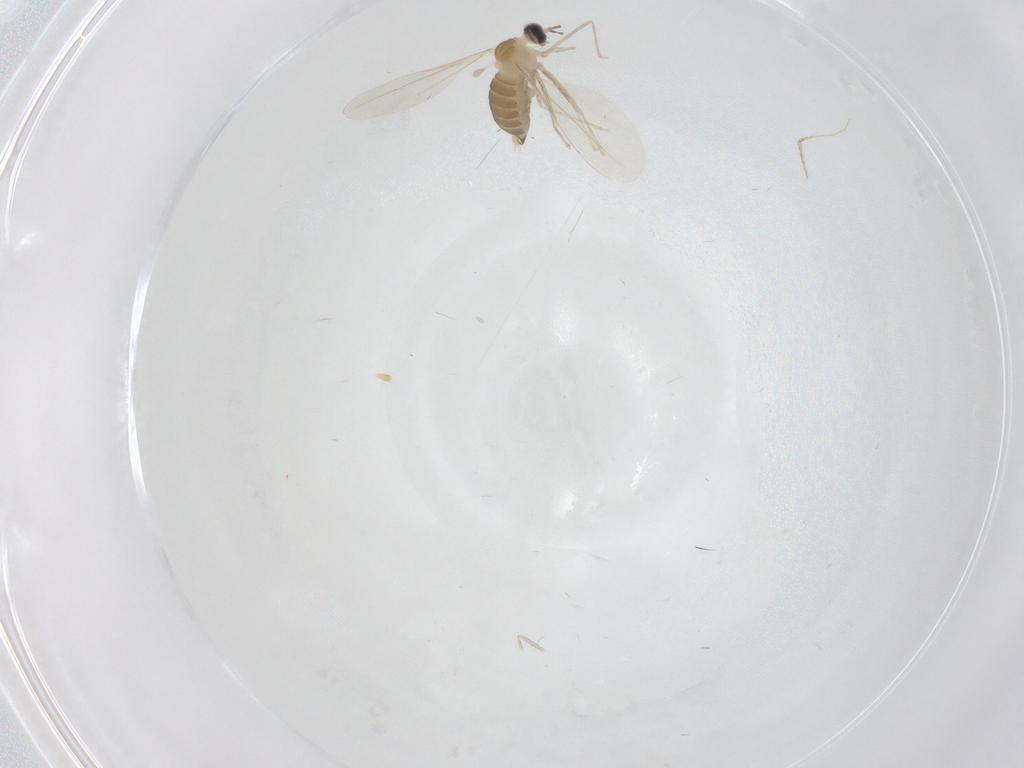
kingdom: Animalia
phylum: Arthropoda
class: Insecta
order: Diptera
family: Cecidomyiidae
